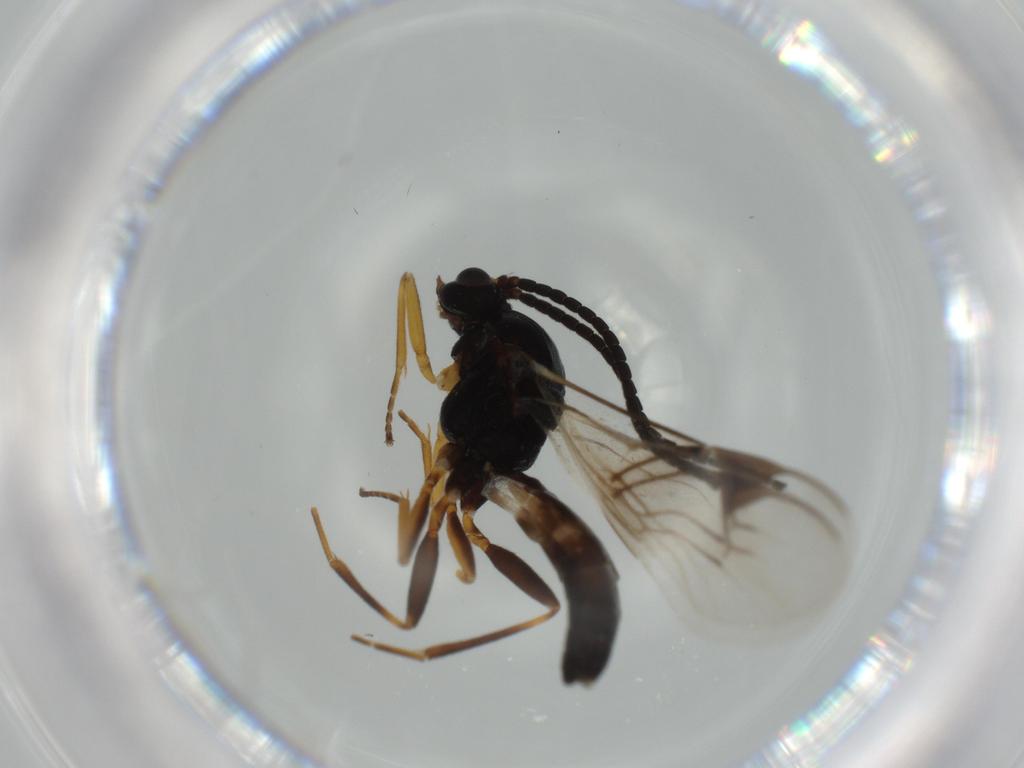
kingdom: Animalia
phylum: Arthropoda
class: Insecta
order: Hymenoptera
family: Braconidae
